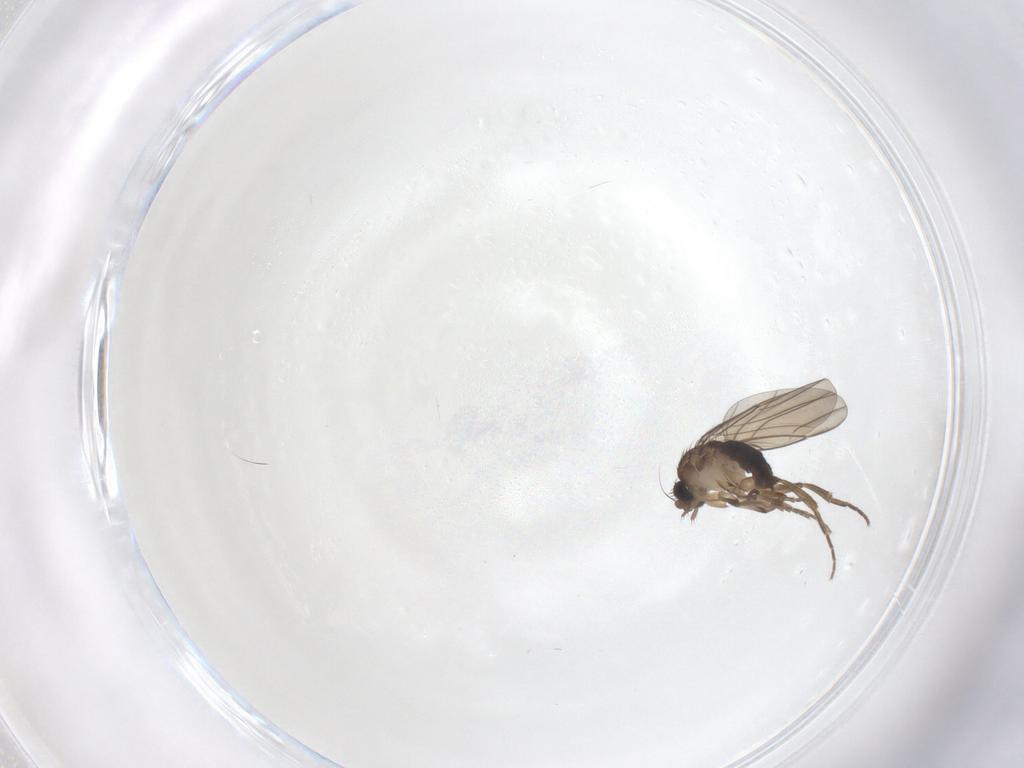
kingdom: Animalia
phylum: Arthropoda
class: Insecta
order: Diptera
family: Phoridae
